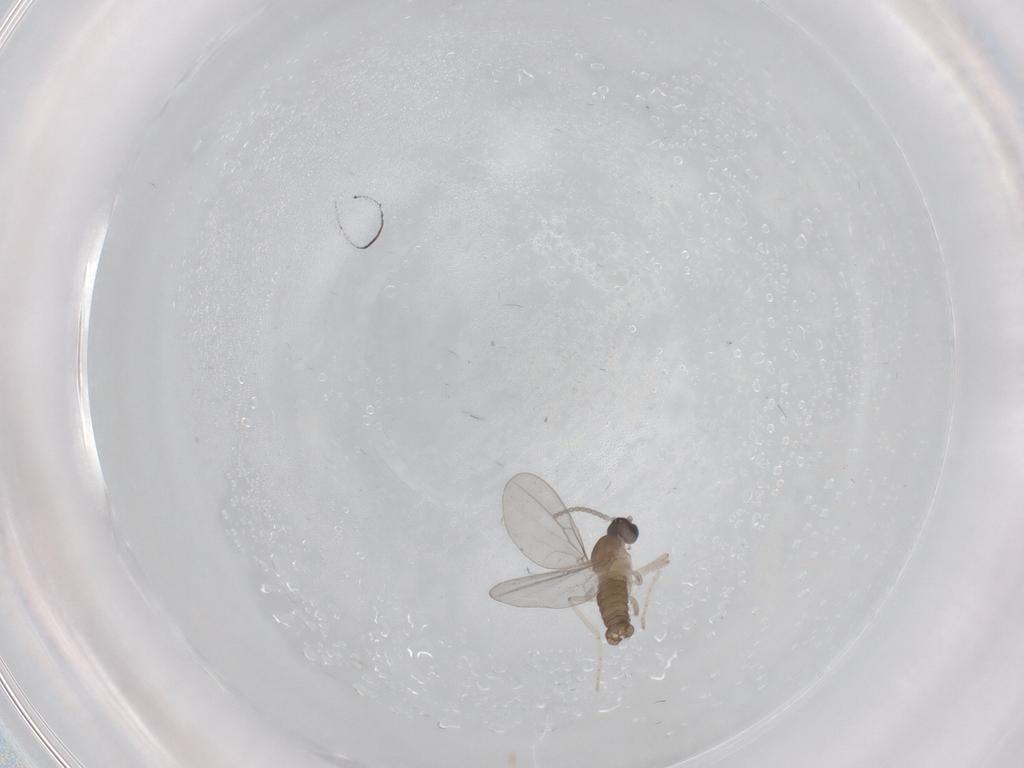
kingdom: Animalia
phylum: Arthropoda
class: Insecta
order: Diptera
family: Cecidomyiidae
